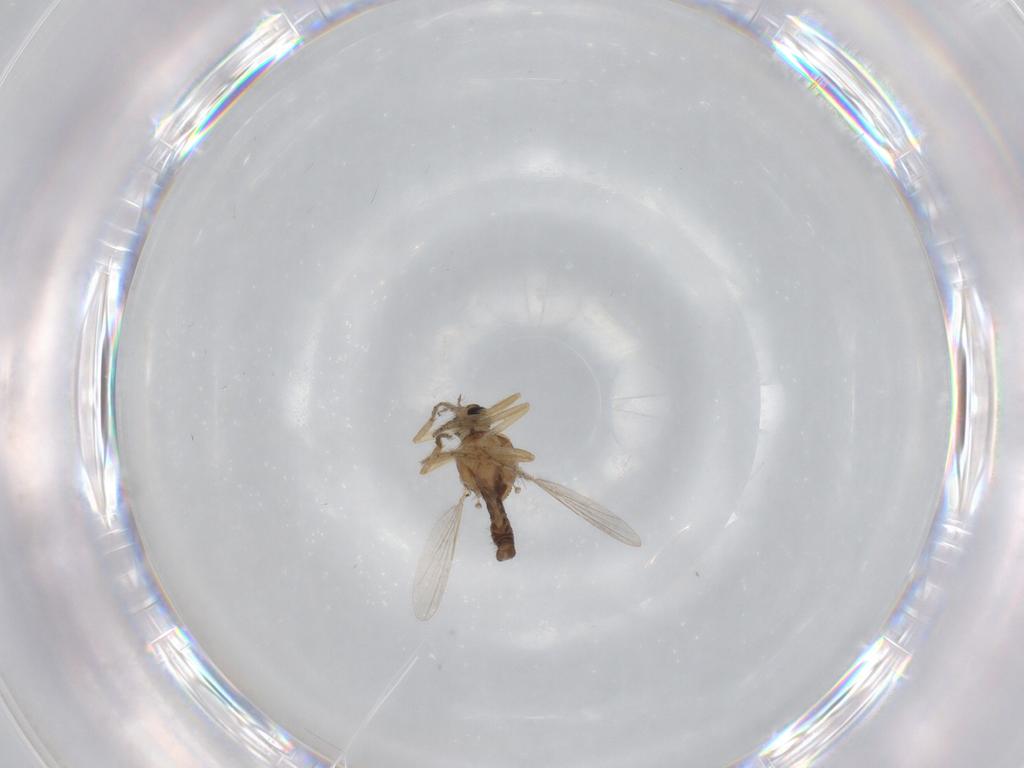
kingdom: Animalia
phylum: Arthropoda
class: Insecta
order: Diptera
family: Ceratopogonidae
